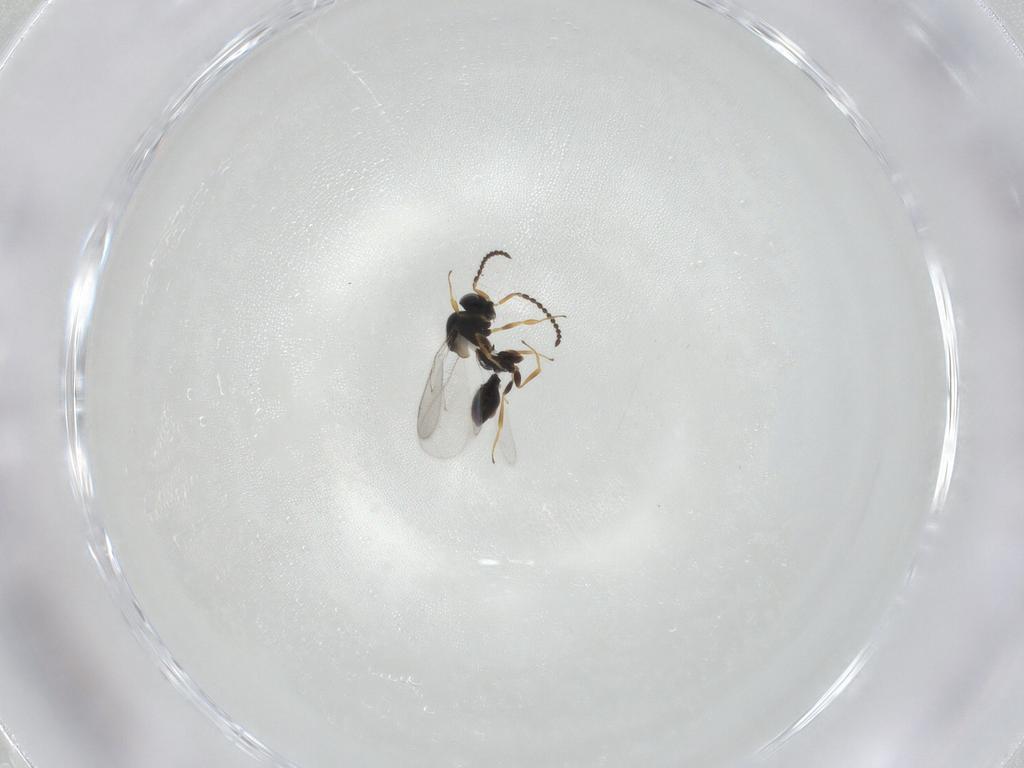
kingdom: Animalia
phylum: Arthropoda
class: Insecta
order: Hymenoptera
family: Scelionidae
